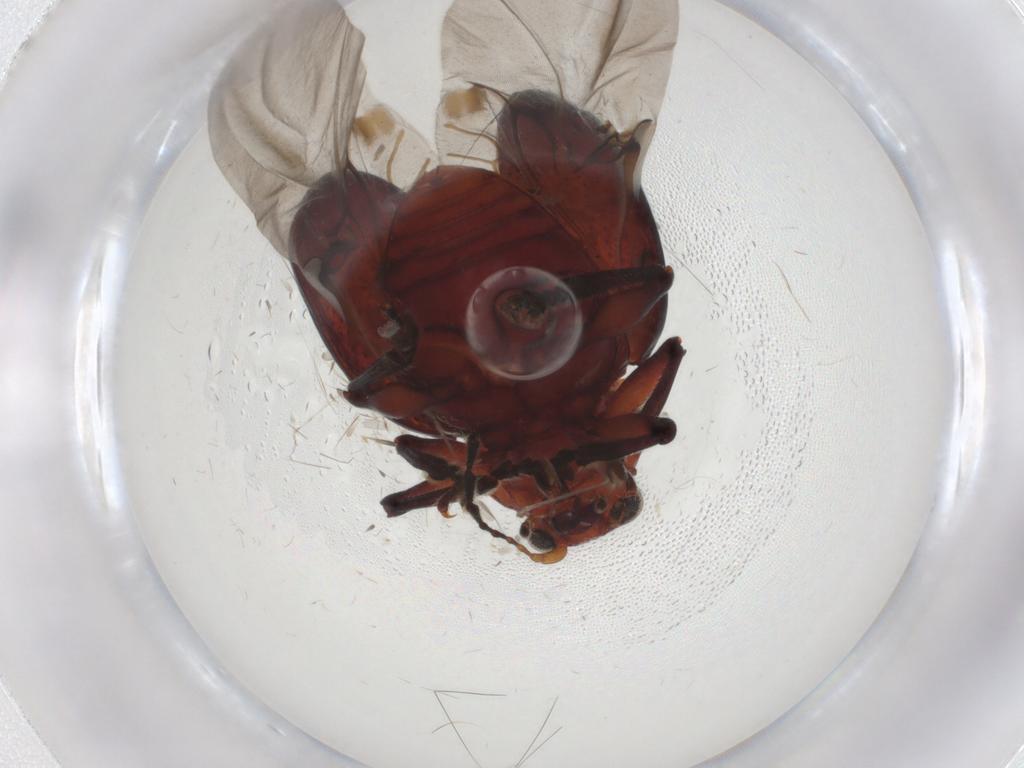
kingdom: Animalia
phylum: Arthropoda
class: Insecta
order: Coleoptera
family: Chrysomelidae
